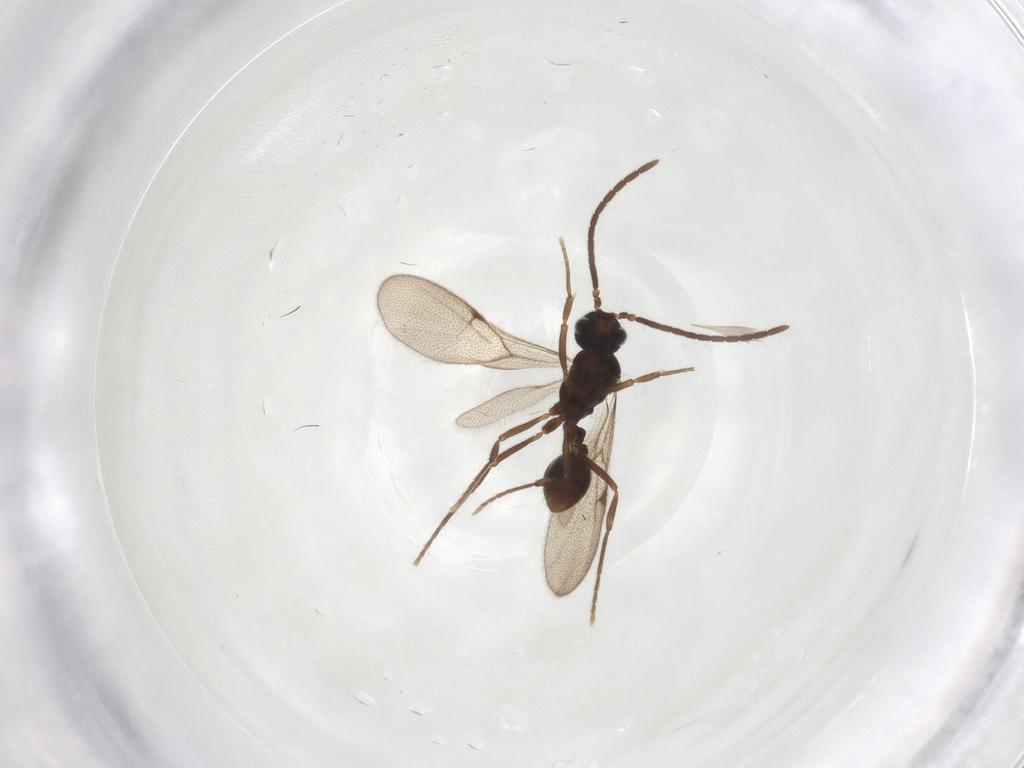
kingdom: Animalia
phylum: Arthropoda
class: Insecta
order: Hymenoptera
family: Formicidae
